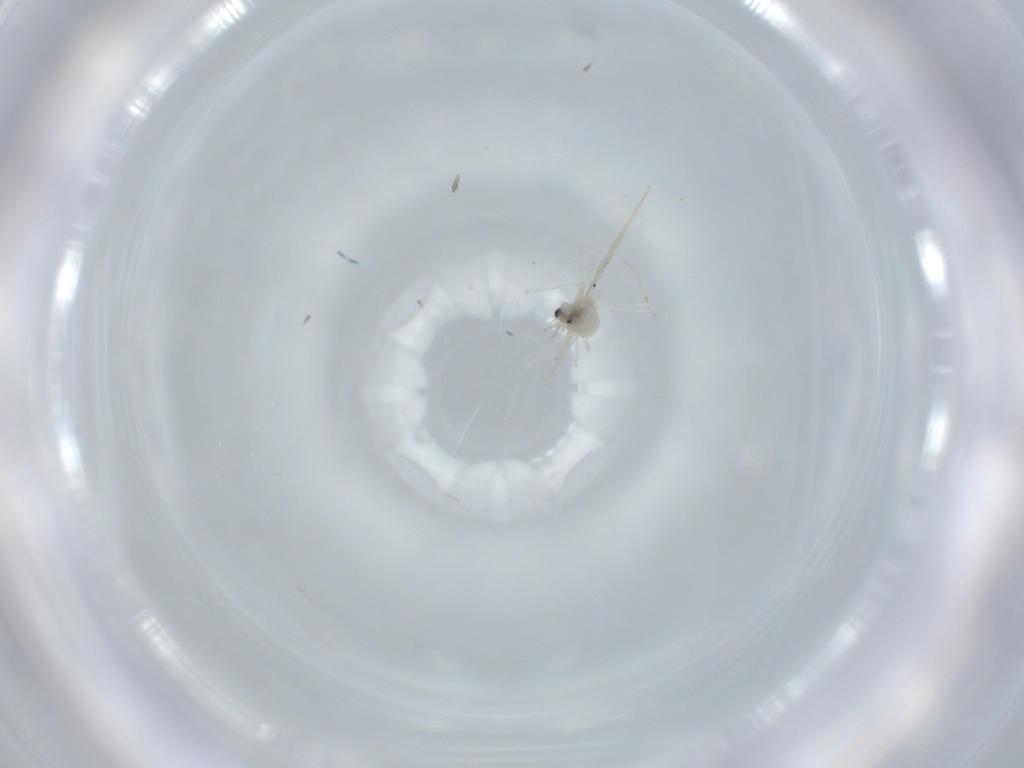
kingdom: Animalia
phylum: Arthropoda
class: Insecta
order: Diptera
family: Cecidomyiidae
